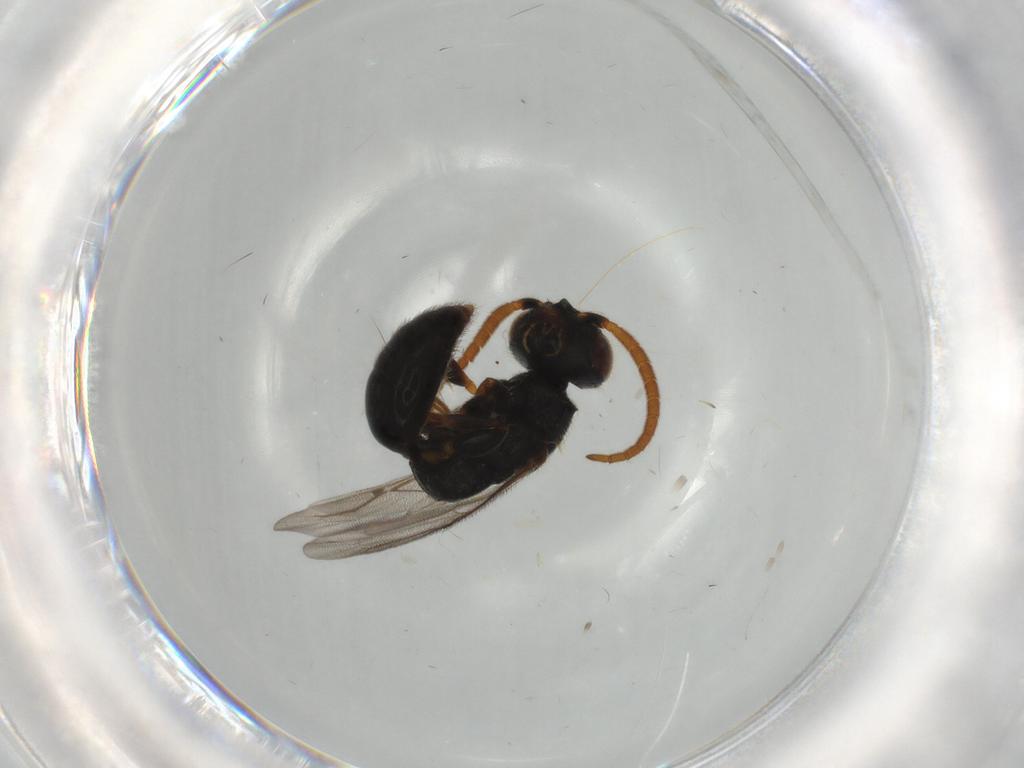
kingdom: Animalia
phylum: Arthropoda
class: Insecta
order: Hymenoptera
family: Bethylidae
